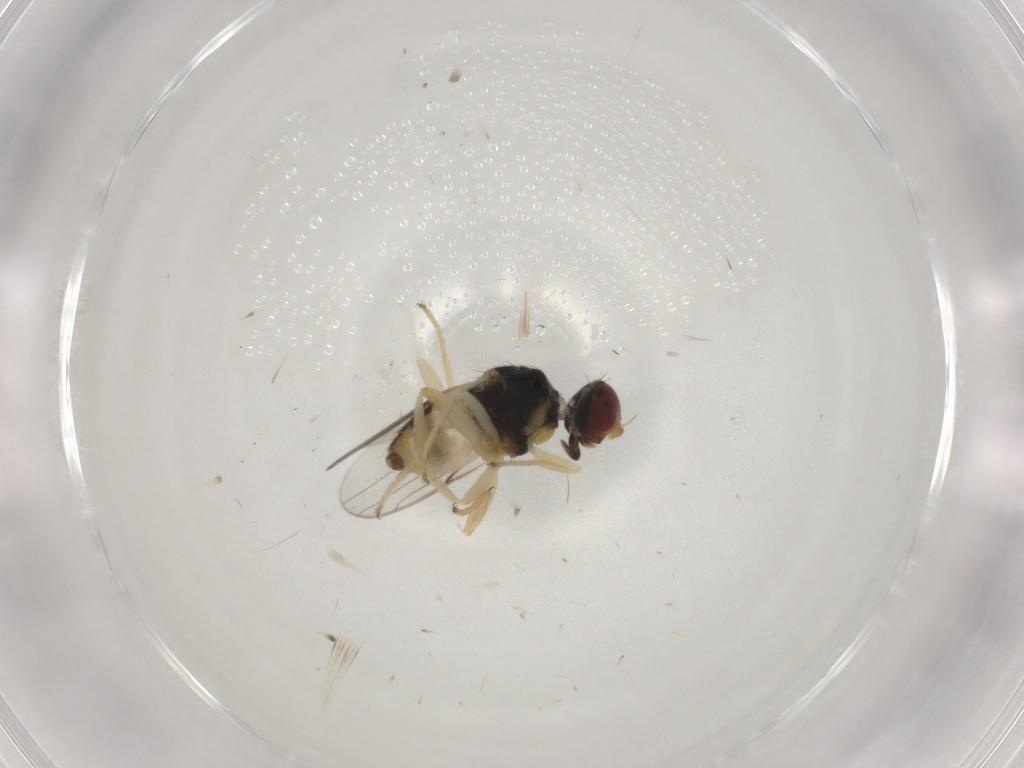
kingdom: Animalia
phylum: Arthropoda
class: Insecta
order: Diptera
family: Chloropidae
